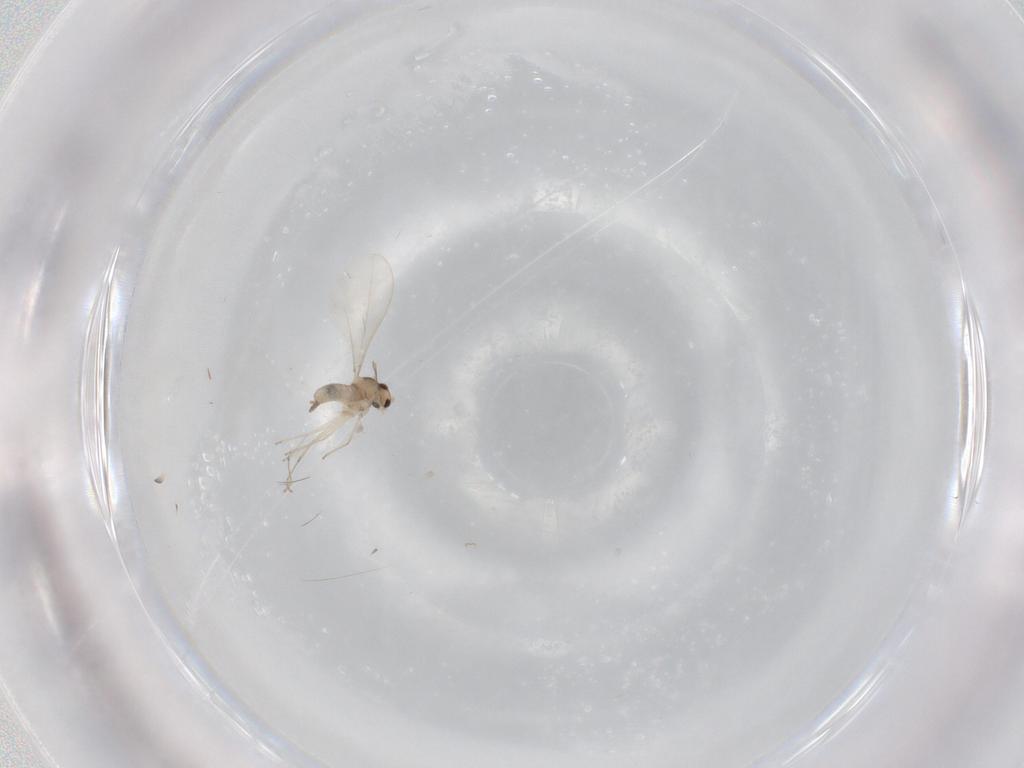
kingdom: Animalia
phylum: Arthropoda
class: Insecta
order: Diptera
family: Cecidomyiidae
